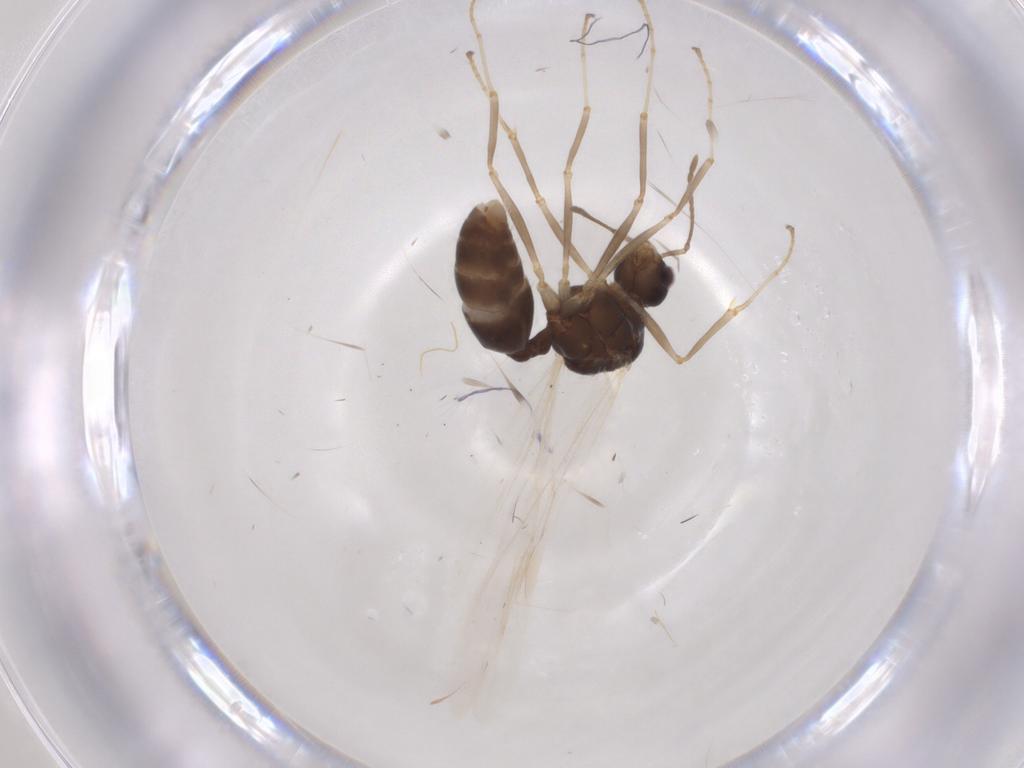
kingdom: Animalia
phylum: Arthropoda
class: Insecta
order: Hymenoptera
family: Formicidae
